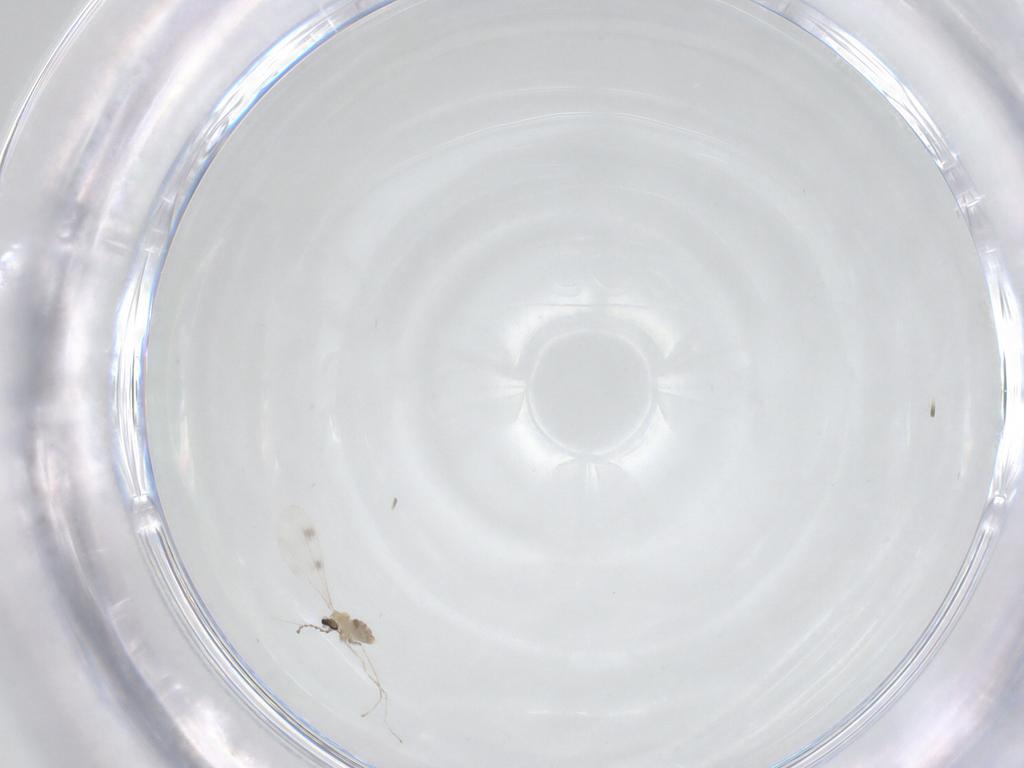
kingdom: Animalia
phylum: Arthropoda
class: Insecta
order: Diptera
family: Cecidomyiidae
